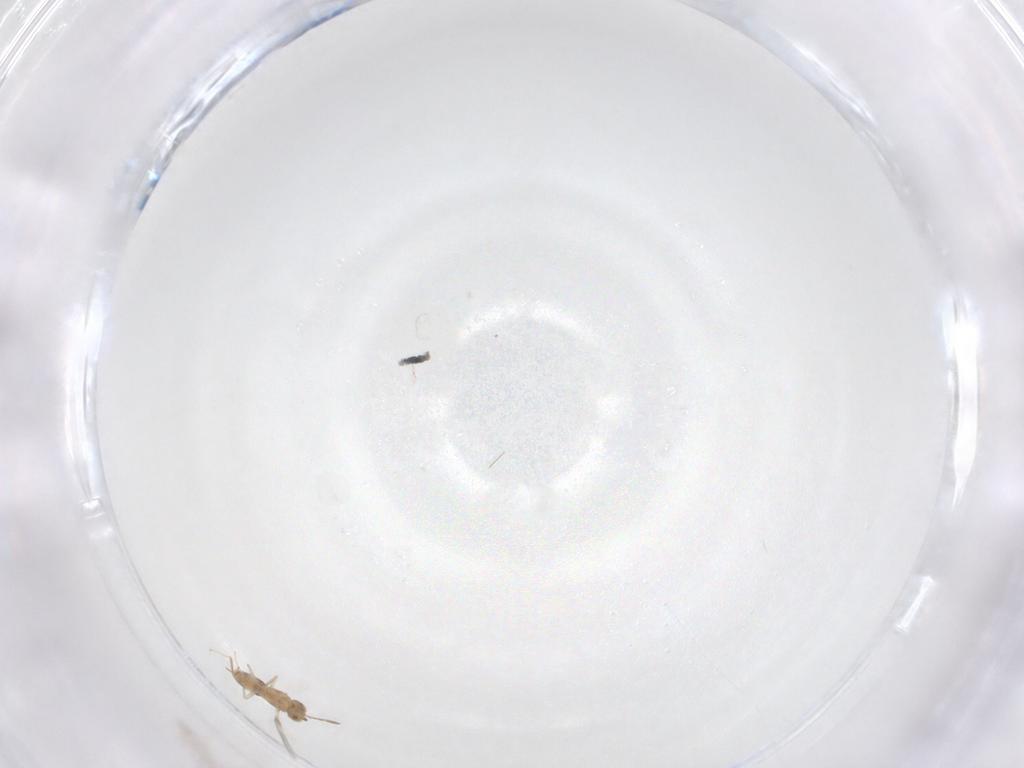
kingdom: Animalia
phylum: Arthropoda
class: Insecta
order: Hymenoptera
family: Aphelinidae
